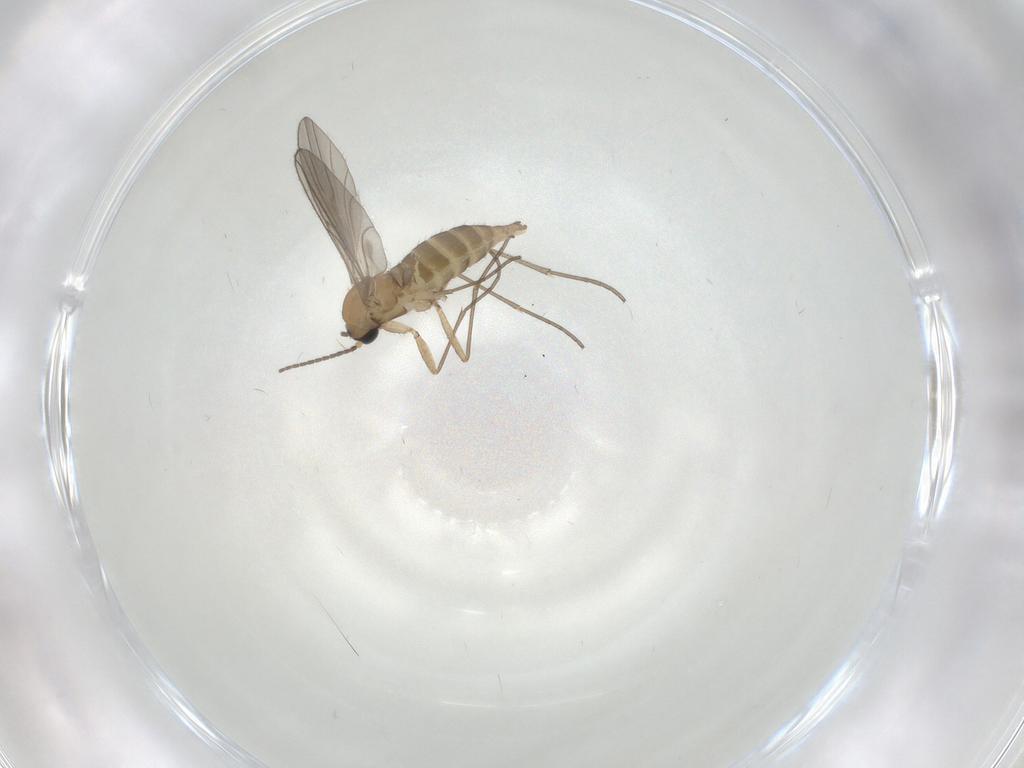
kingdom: Animalia
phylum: Arthropoda
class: Insecta
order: Diptera
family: Sciaridae
